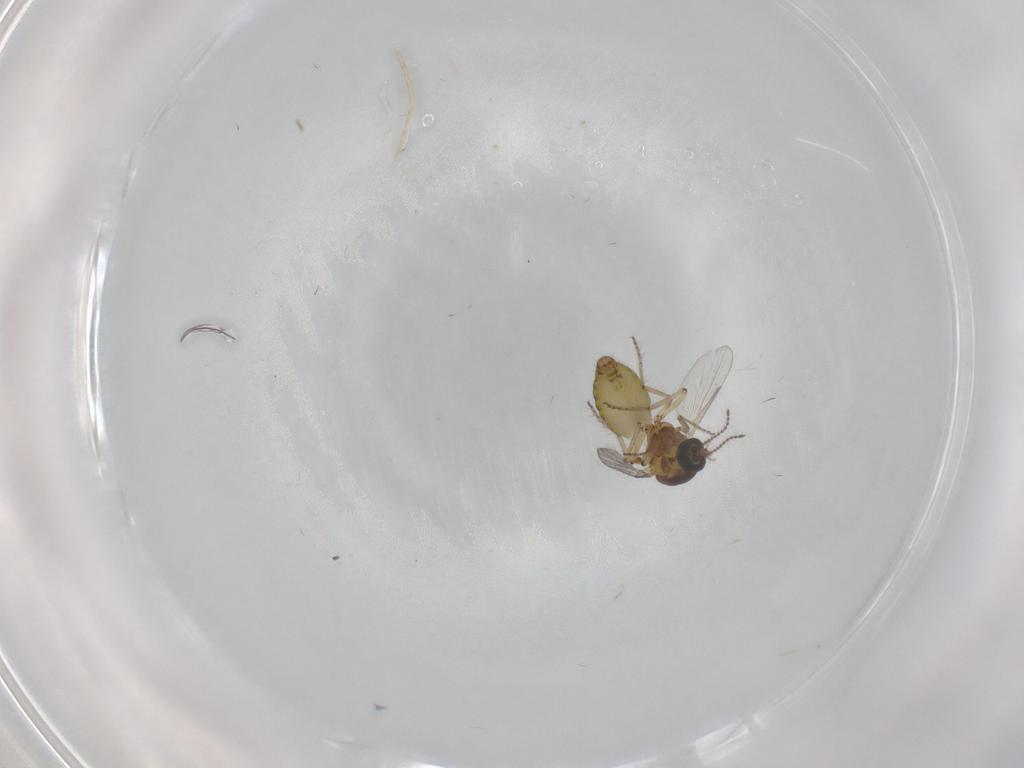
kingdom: Animalia
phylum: Arthropoda
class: Insecta
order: Diptera
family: Ceratopogonidae
